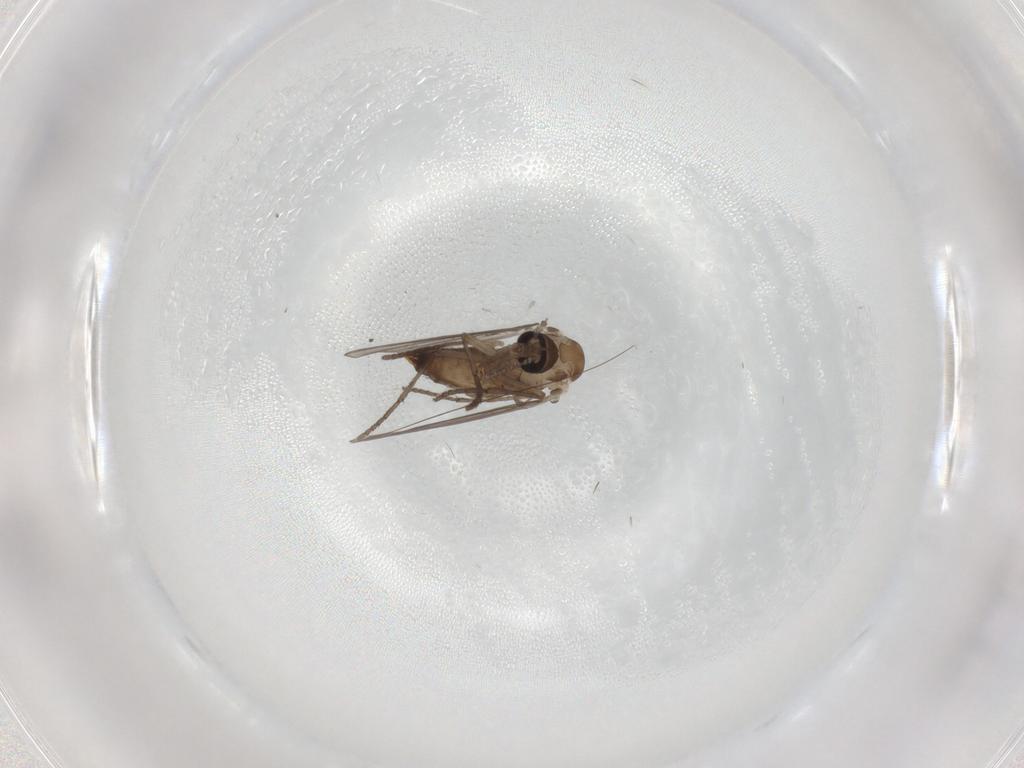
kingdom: Animalia
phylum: Arthropoda
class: Insecta
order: Diptera
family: Psychodidae
